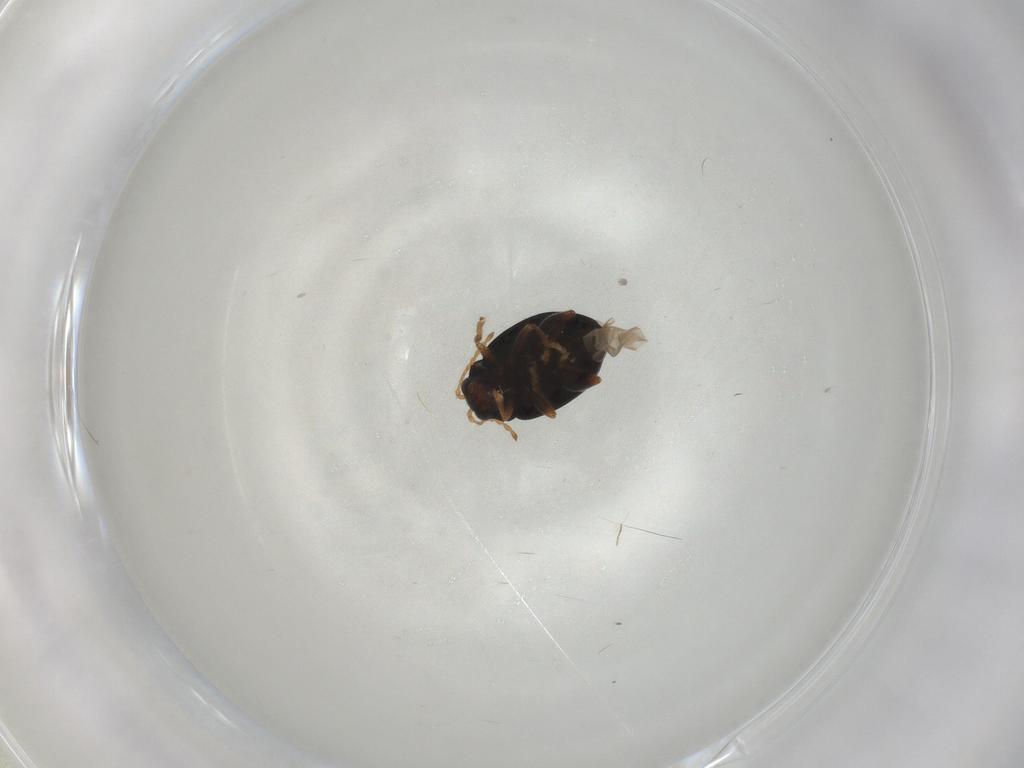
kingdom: Animalia
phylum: Arthropoda
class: Insecta
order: Coleoptera
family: Chrysomelidae
